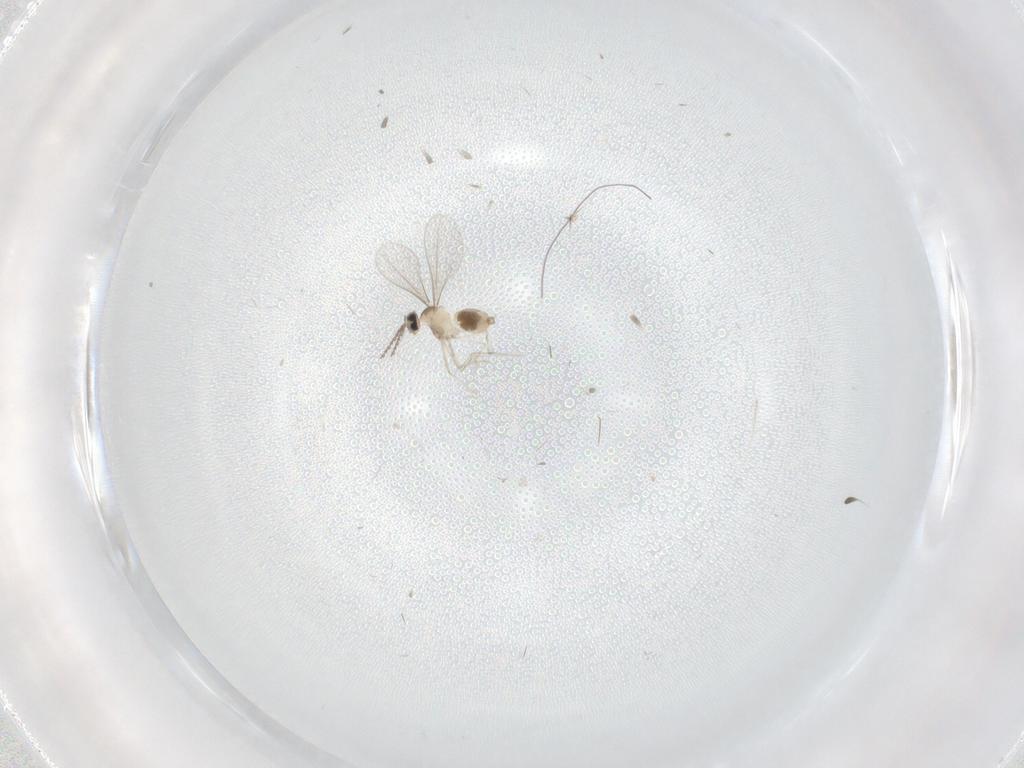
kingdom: Animalia
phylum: Arthropoda
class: Insecta
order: Diptera
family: Cecidomyiidae
